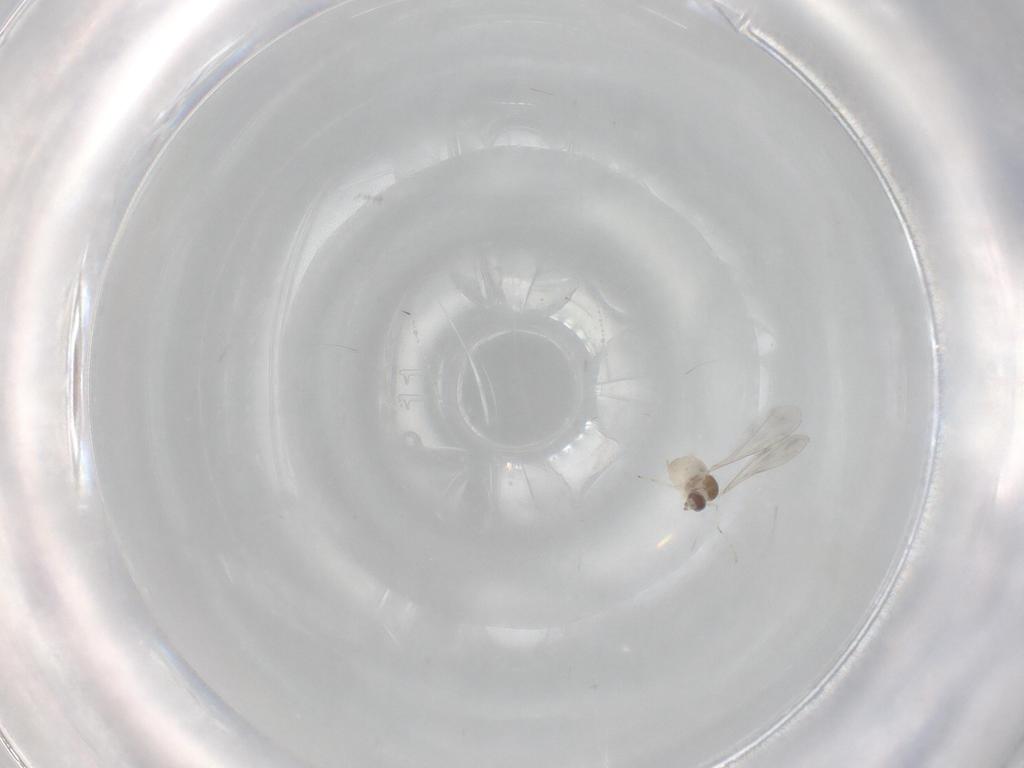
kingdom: Animalia
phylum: Arthropoda
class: Insecta
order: Diptera
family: Cecidomyiidae
